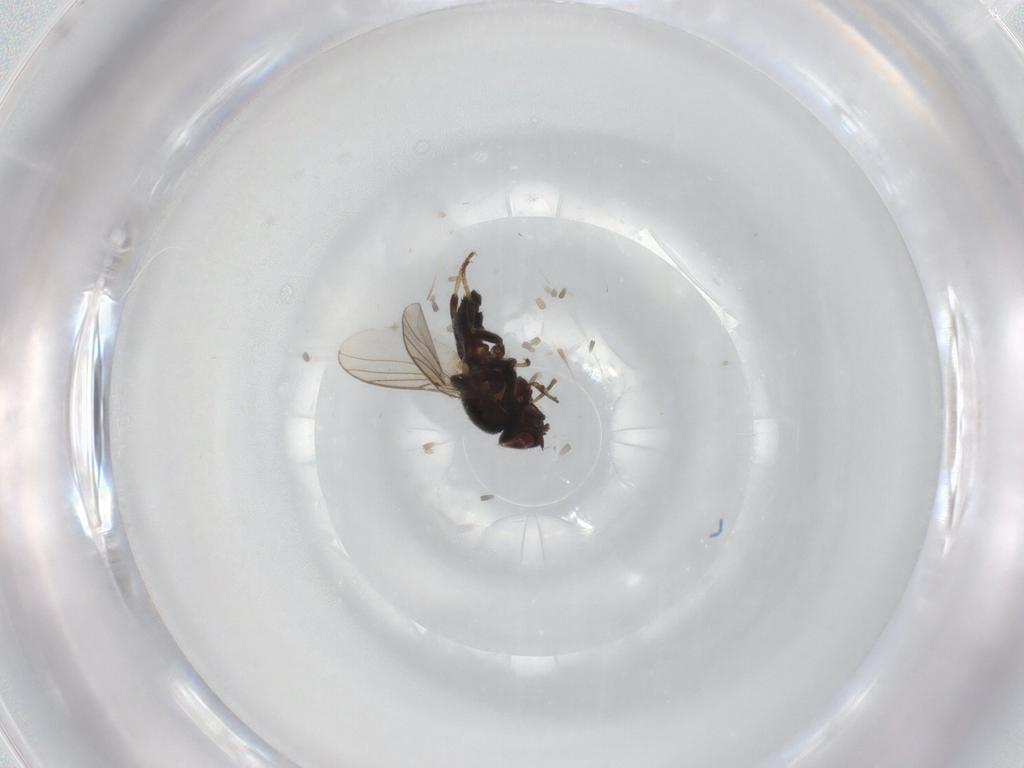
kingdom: Animalia
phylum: Arthropoda
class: Insecta
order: Diptera
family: Chloropidae
